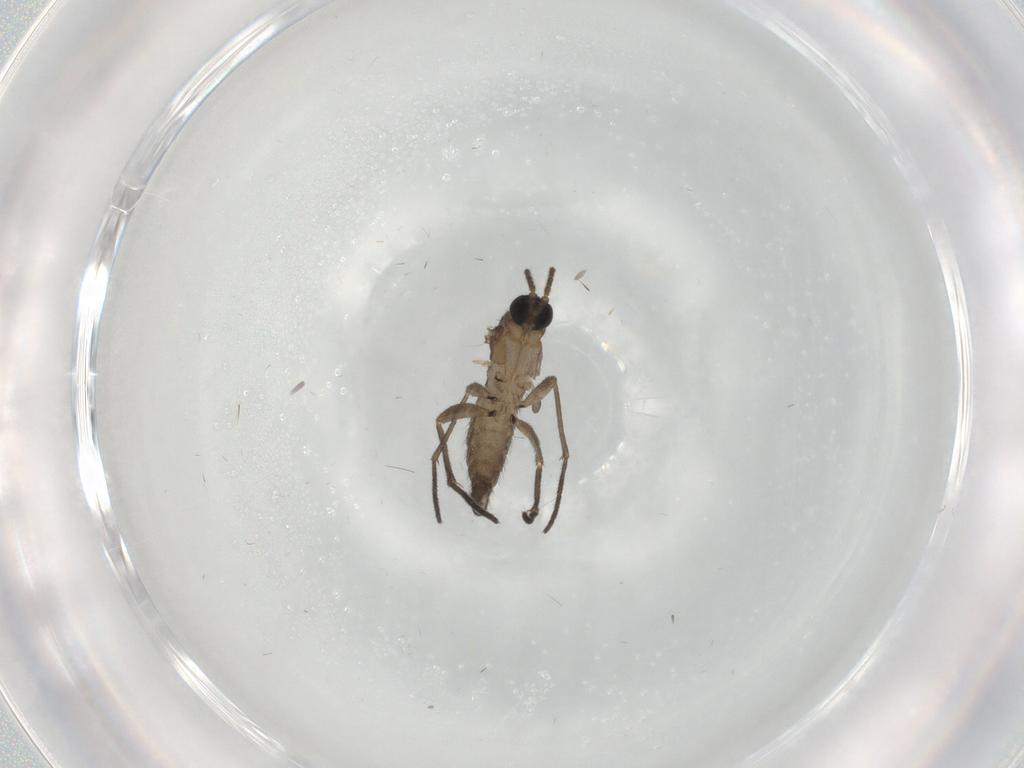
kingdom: Animalia
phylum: Arthropoda
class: Insecta
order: Diptera
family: Sciaridae
